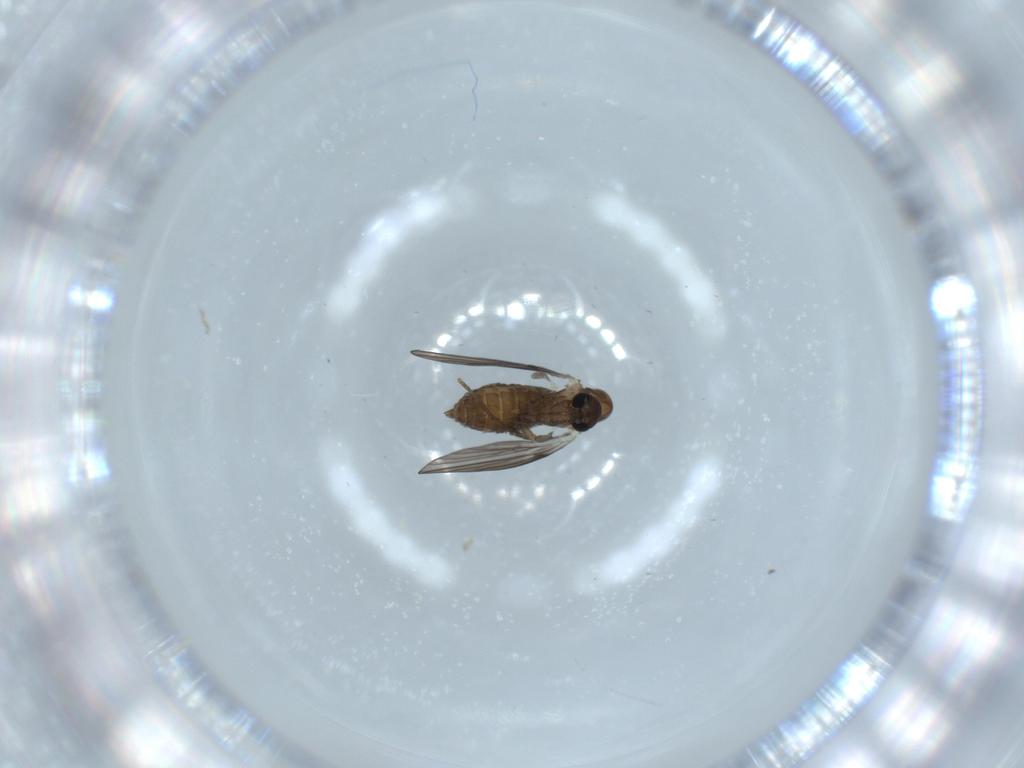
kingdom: Animalia
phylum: Arthropoda
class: Insecta
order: Diptera
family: Psychodidae
